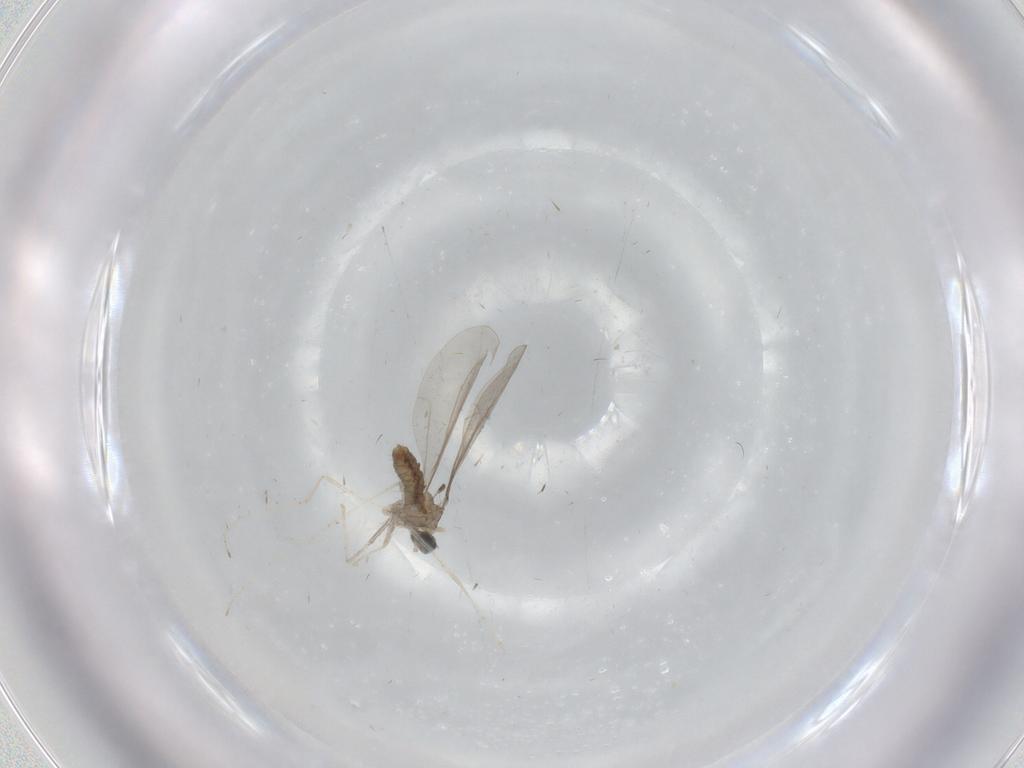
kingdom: Animalia
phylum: Arthropoda
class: Insecta
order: Diptera
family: Cecidomyiidae
